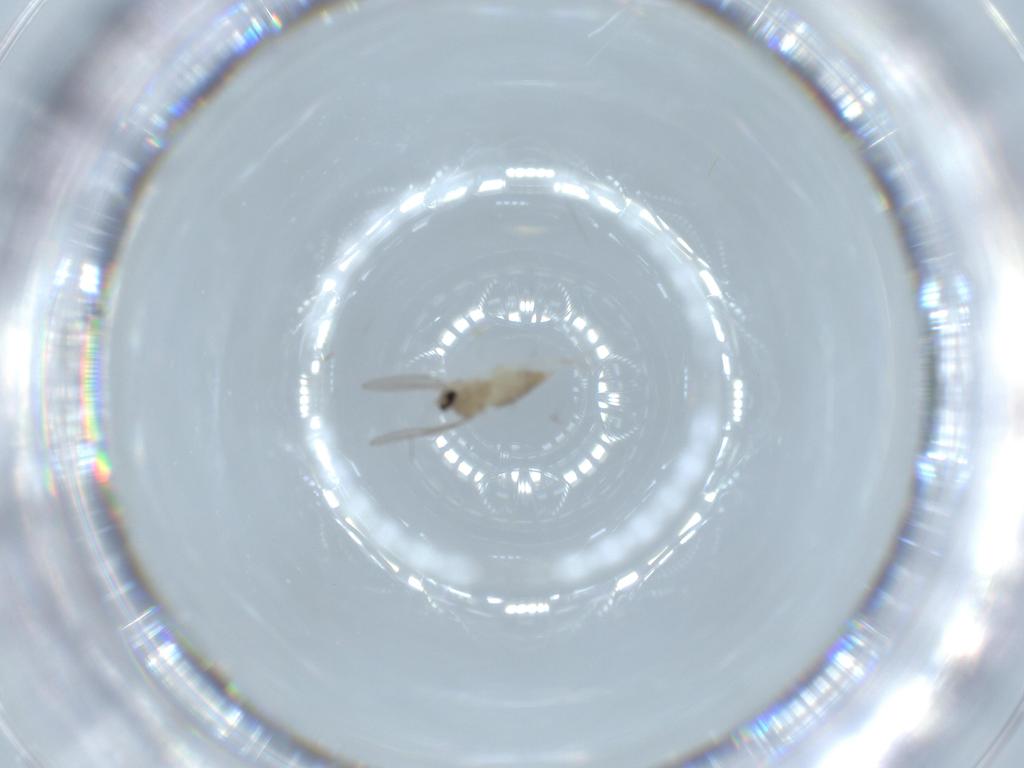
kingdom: Animalia
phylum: Arthropoda
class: Insecta
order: Diptera
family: Cecidomyiidae
